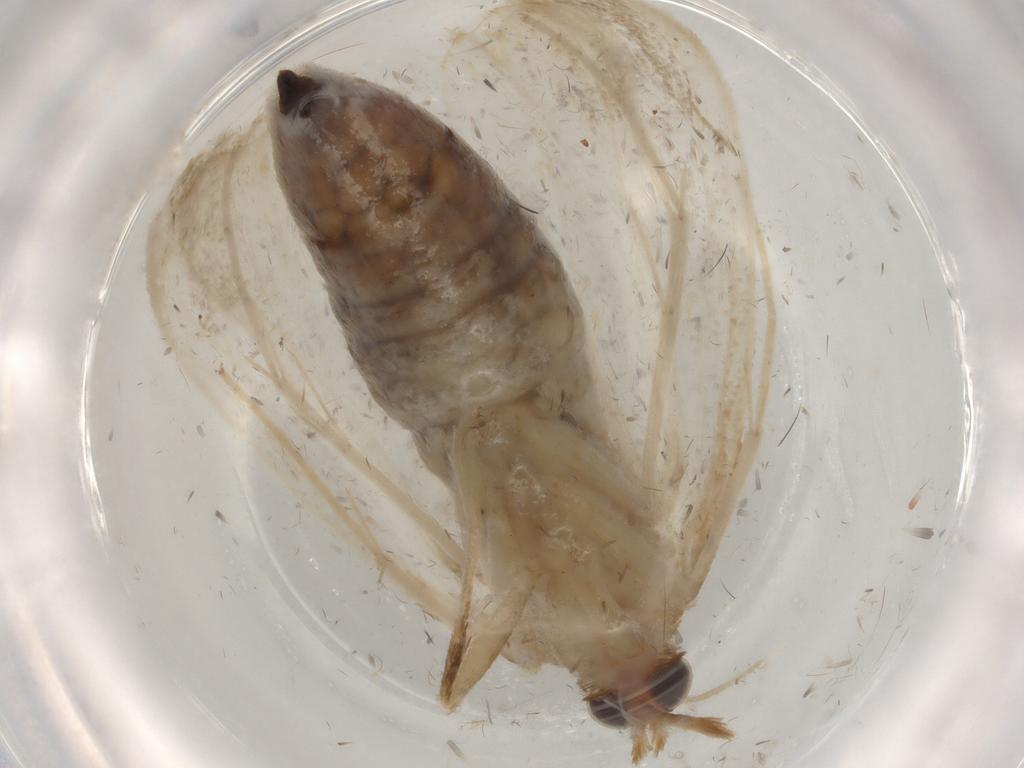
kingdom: Animalia
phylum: Arthropoda
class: Insecta
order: Lepidoptera
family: Crambidae
